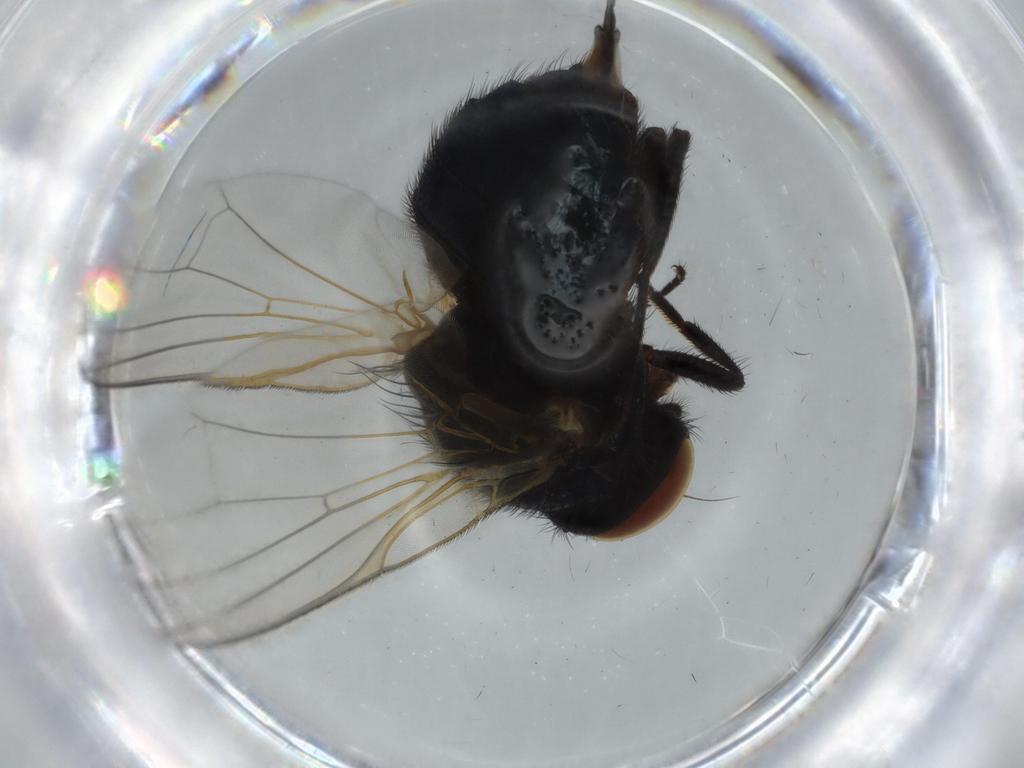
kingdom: Animalia
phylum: Arthropoda
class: Insecta
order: Diptera
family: Lonchaeidae
